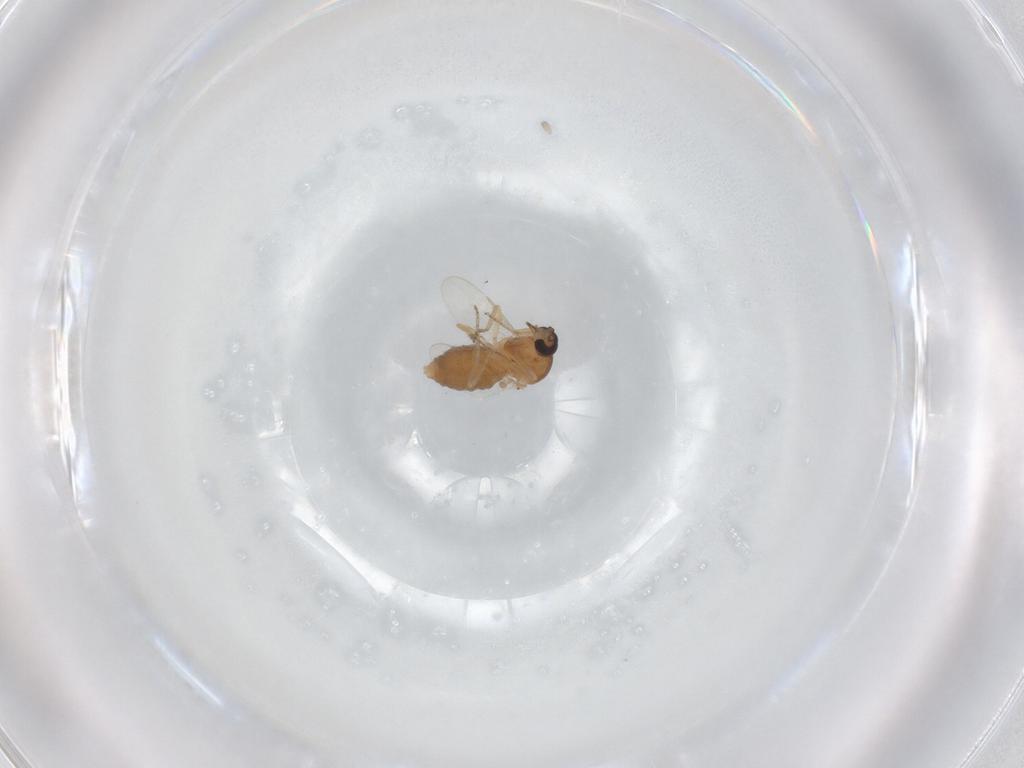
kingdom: Animalia
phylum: Arthropoda
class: Insecta
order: Diptera
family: Ceratopogonidae
